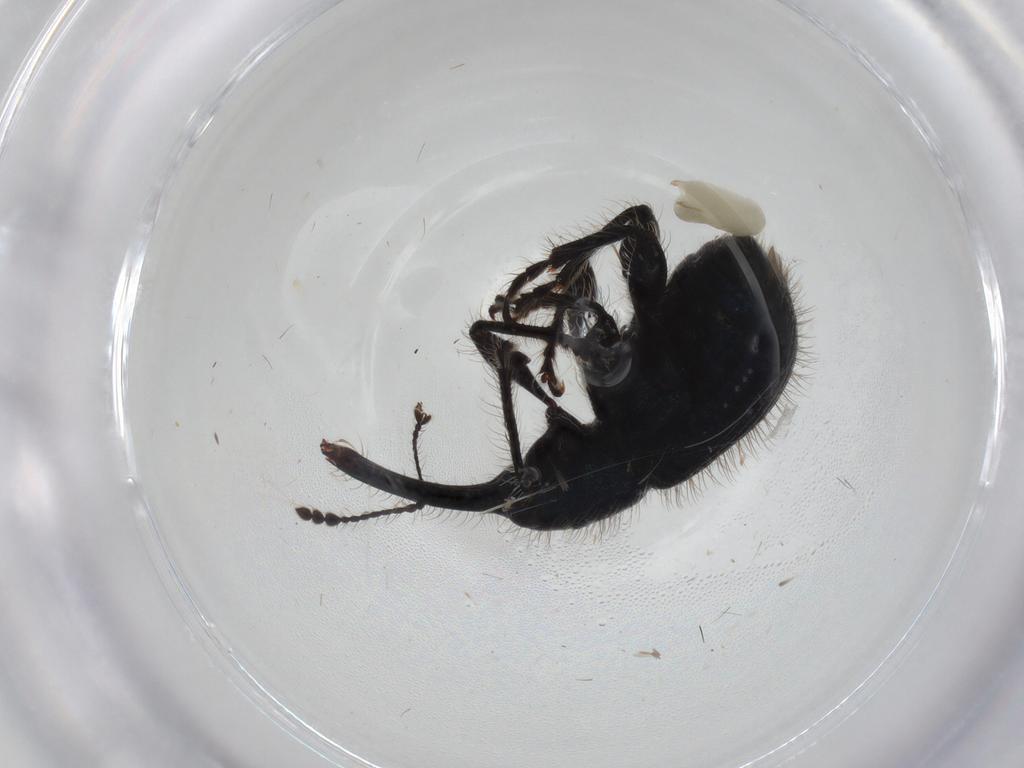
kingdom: Animalia
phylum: Arthropoda
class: Insecta
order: Coleoptera
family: Attelabidae
